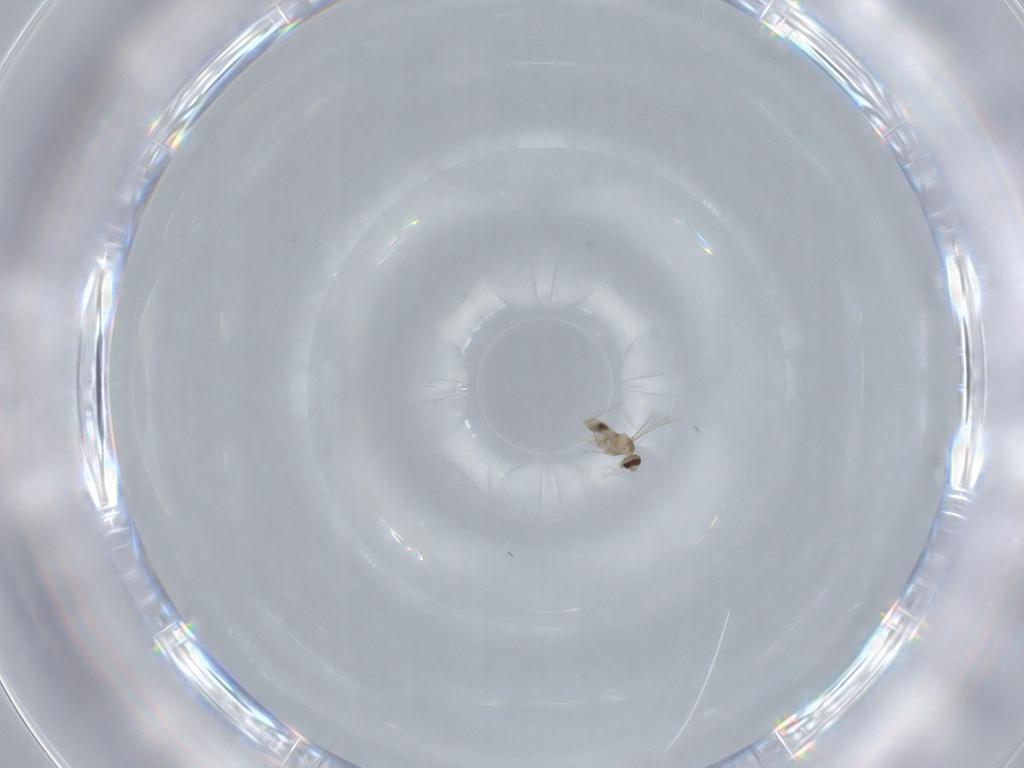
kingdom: Animalia
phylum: Arthropoda
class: Insecta
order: Diptera
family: Cecidomyiidae
